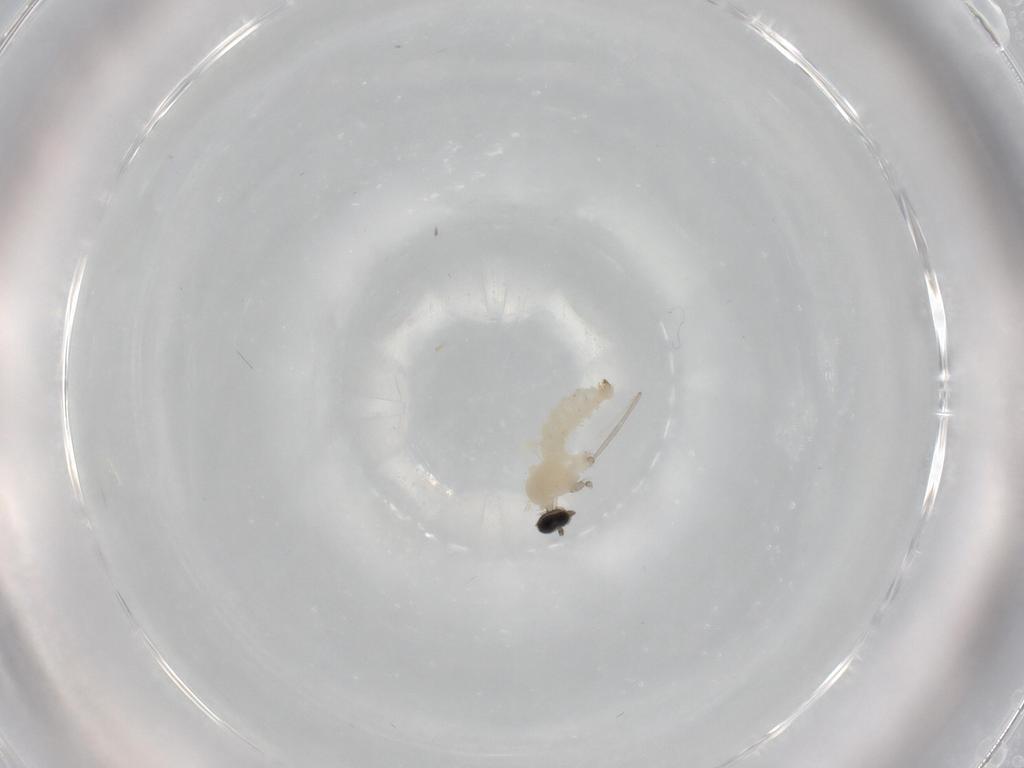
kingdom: Animalia
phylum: Arthropoda
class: Insecta
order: Diptera
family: Cecidomyiidae
